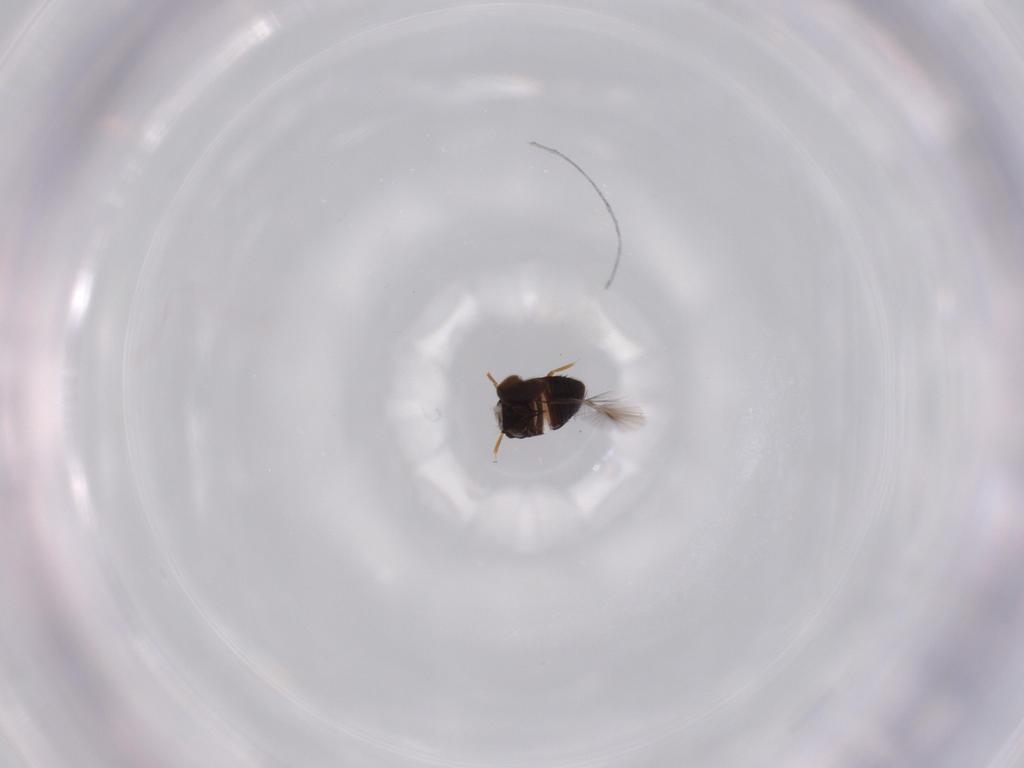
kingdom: Animalia
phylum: Arthropoda
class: Insecta
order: Coleoptera
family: Ptiliidae
